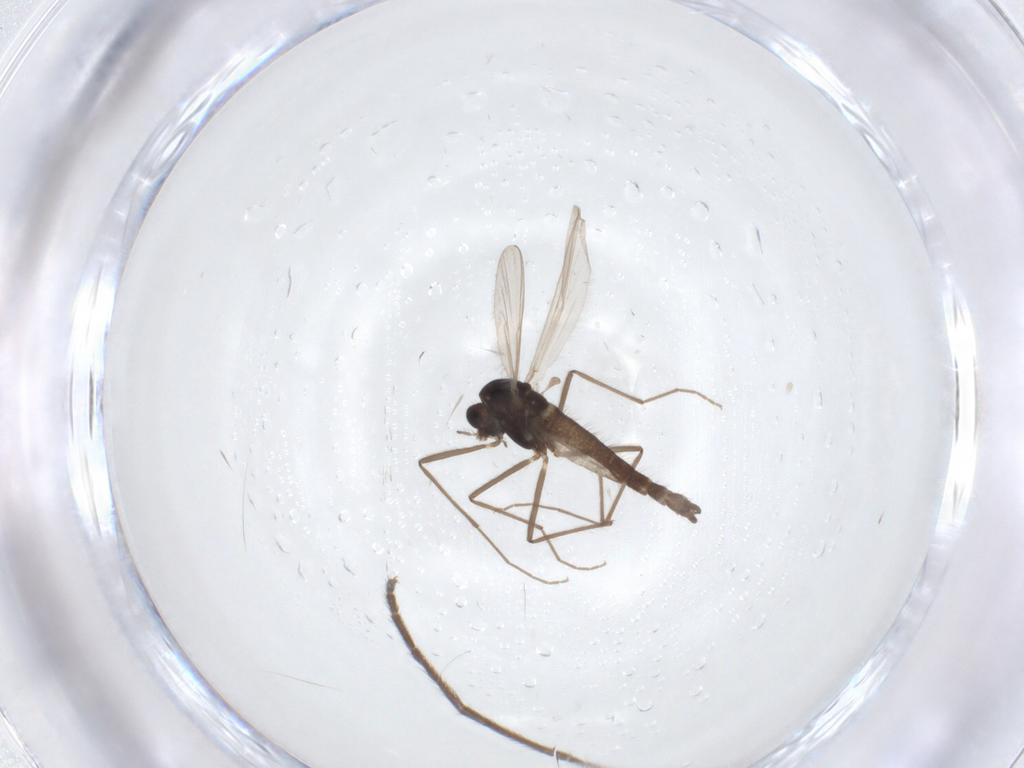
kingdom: Animalia
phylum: Arthropoda
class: Insecta
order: Diptera
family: Chironomidae
